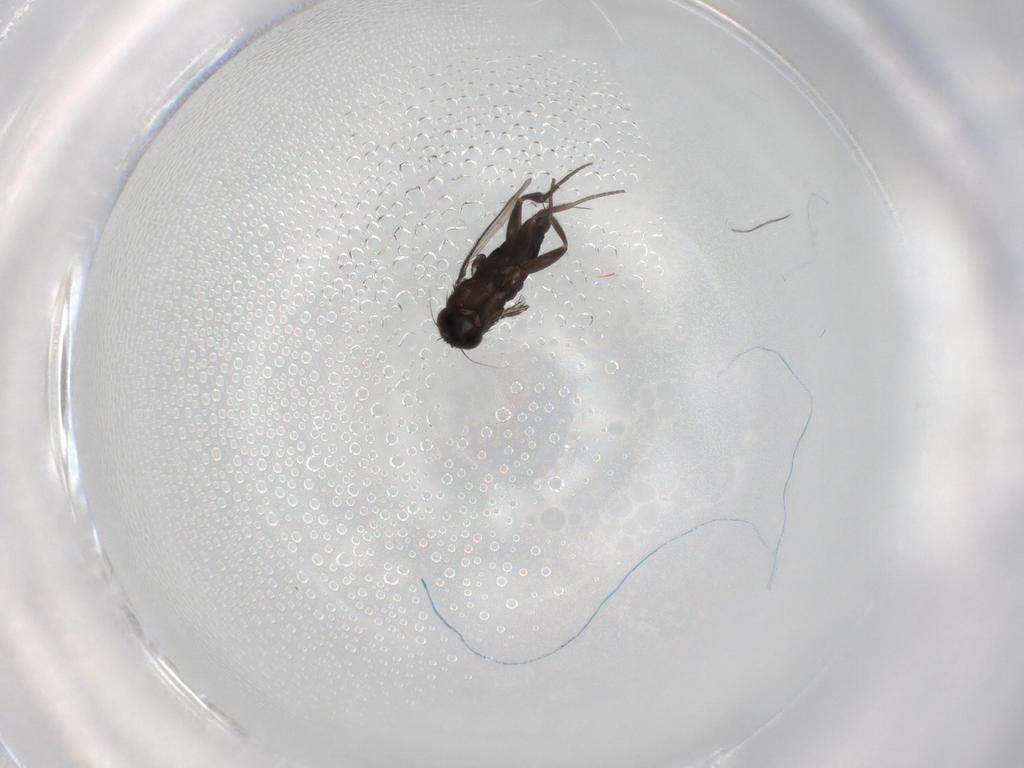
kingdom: Animalia
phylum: Arthropoda
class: Insecta
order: Diptera
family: Phoridae
